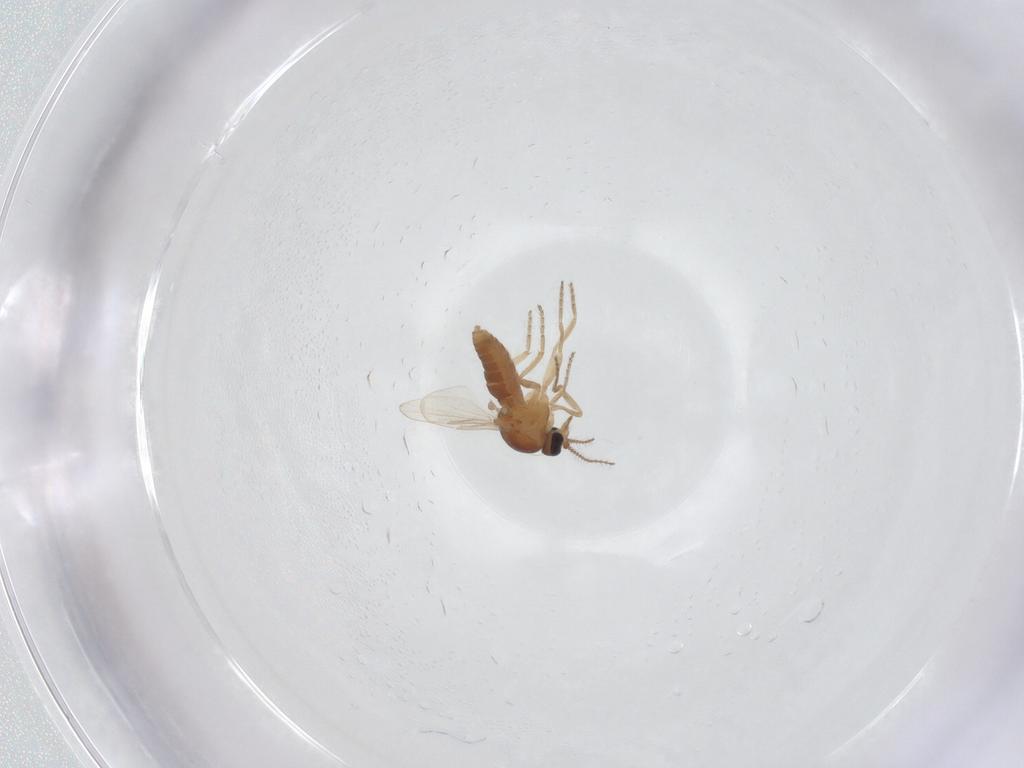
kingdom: Animalia
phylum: Arthropoda
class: Insecta
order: Diptera
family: Ceratopogonidae
